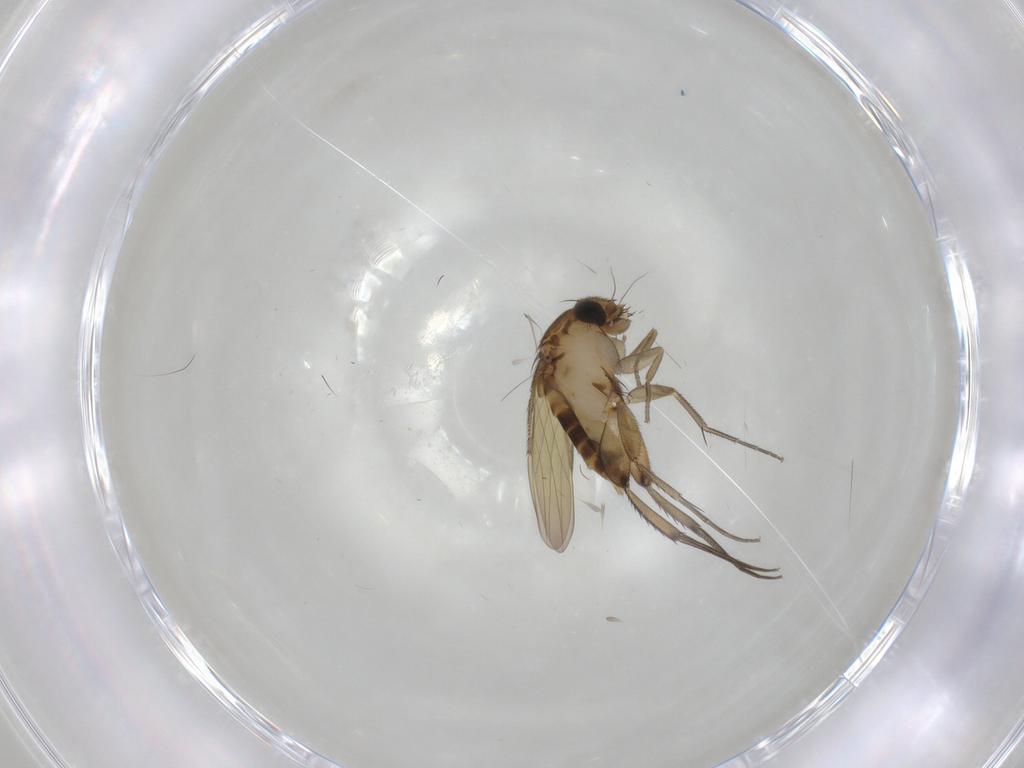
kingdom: Animalia
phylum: Arthropoda
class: Insecta
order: Diptera
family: Phoridae
